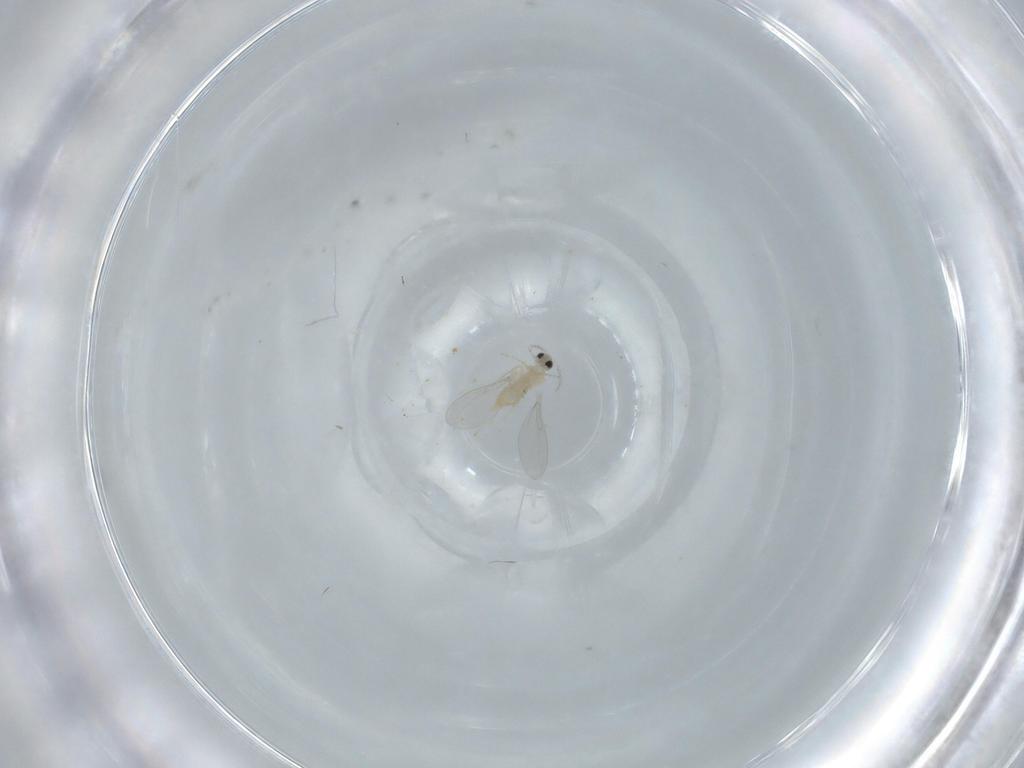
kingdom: Animalia
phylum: Arthropoda
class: Insecta
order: Diptera
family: Cecidomyiidae
